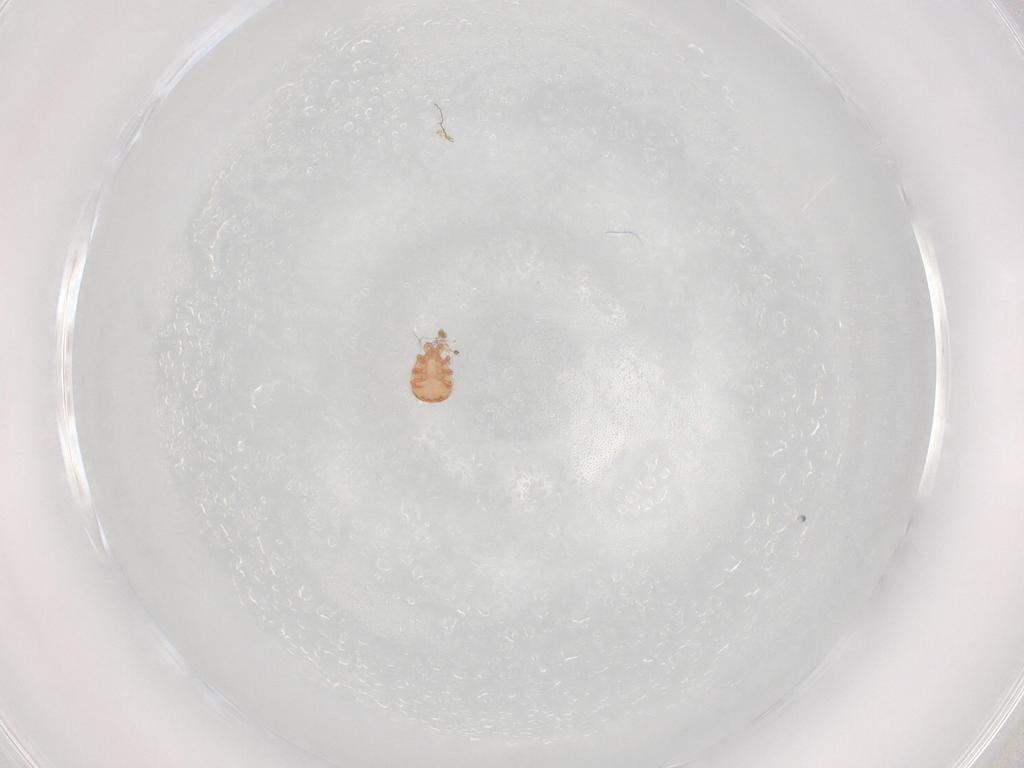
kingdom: Animalia
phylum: Arthropoda
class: Arachnida
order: Mesostigmata
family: Zerconidae
